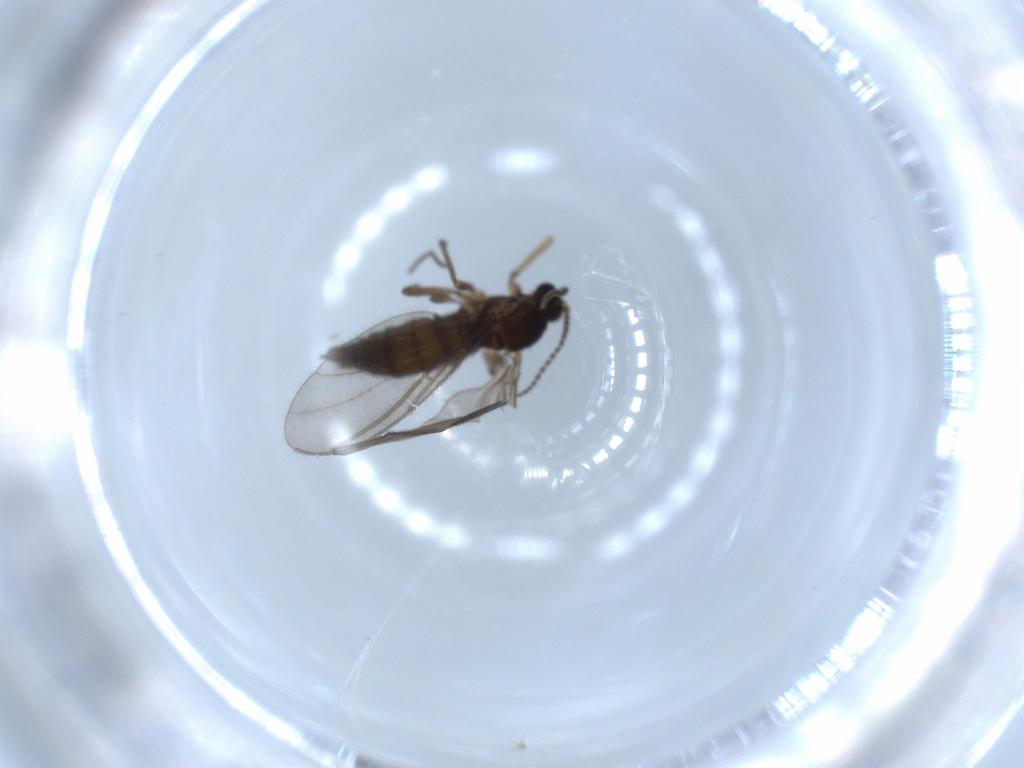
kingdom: Animalia
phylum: Arthropoda
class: Insecta
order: Diptera
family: Sciaridae
